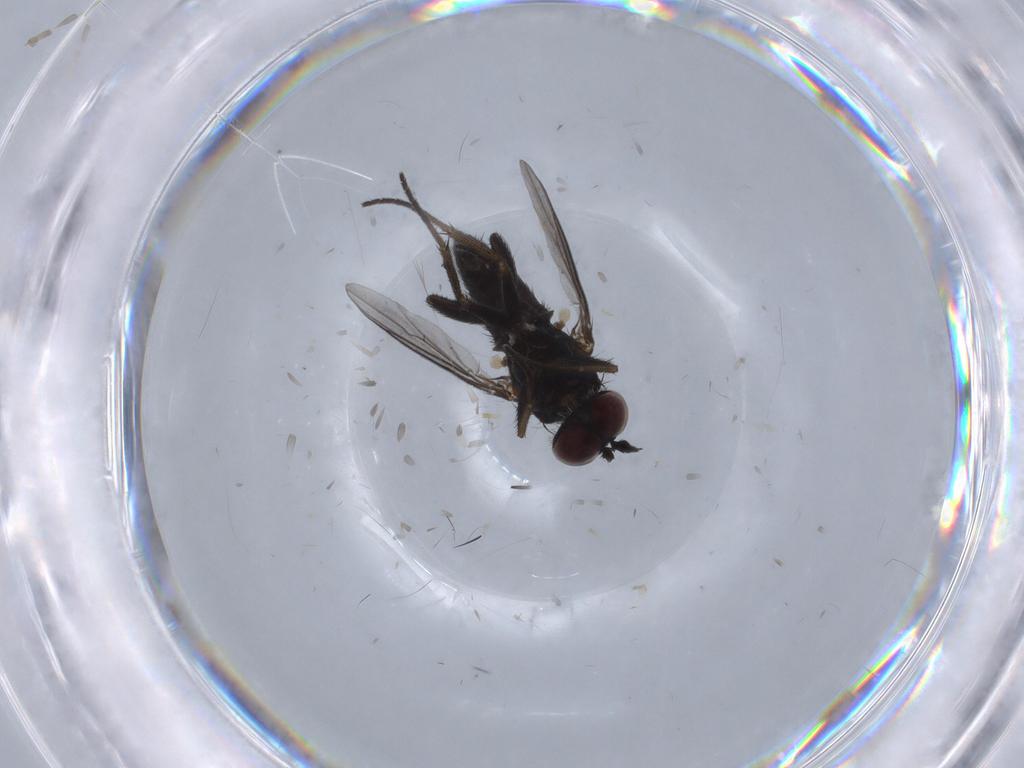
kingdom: Animalia
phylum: Arthropoda
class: Insecta
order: Diptera
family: Dolichopodidae
